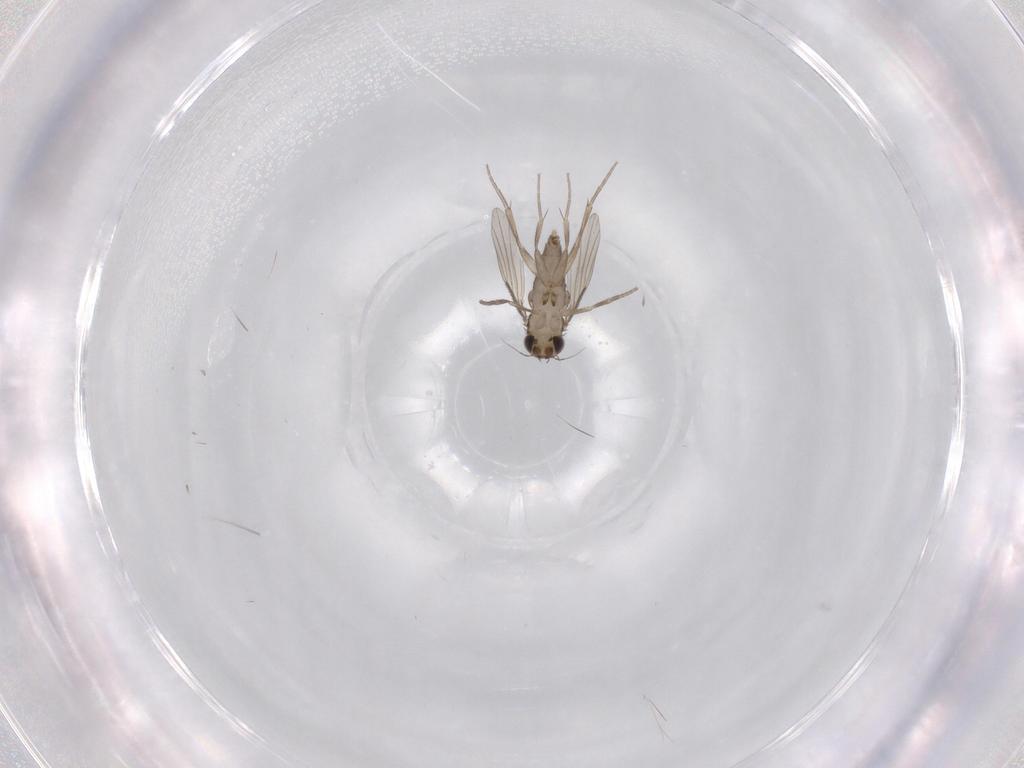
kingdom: Animalia
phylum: Arthropoda
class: Insecta
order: Diptera
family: Phoridae
